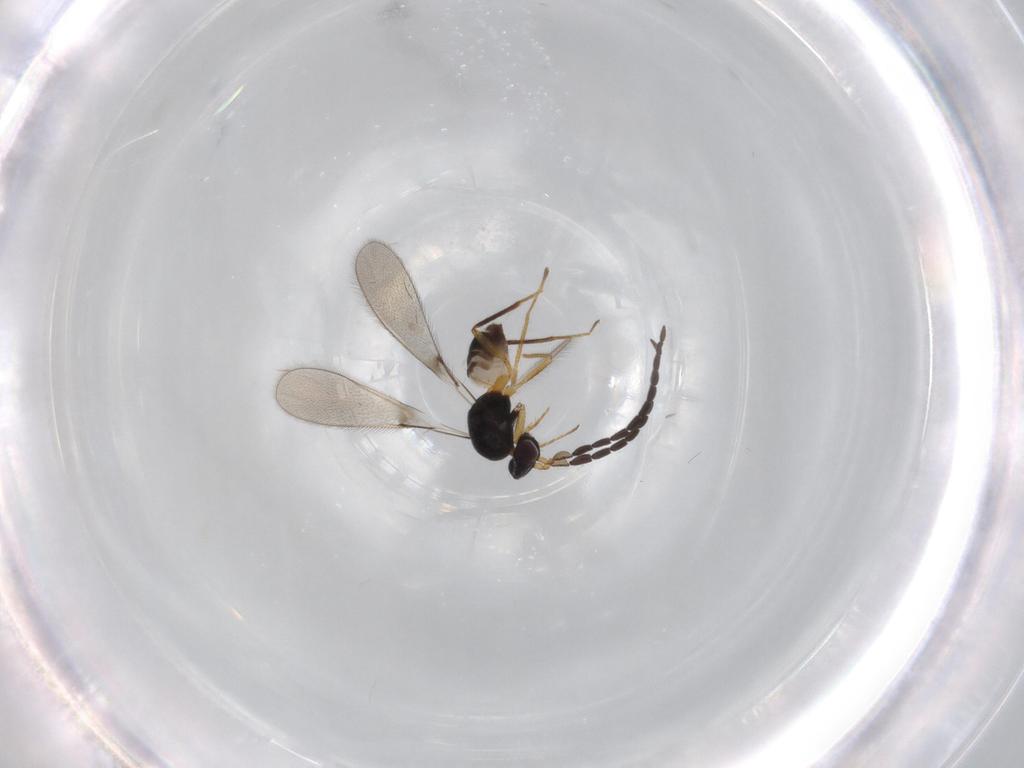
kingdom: Animalia
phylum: Arthropoda
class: Insecta
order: Hymenoptera
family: Mymaridae
